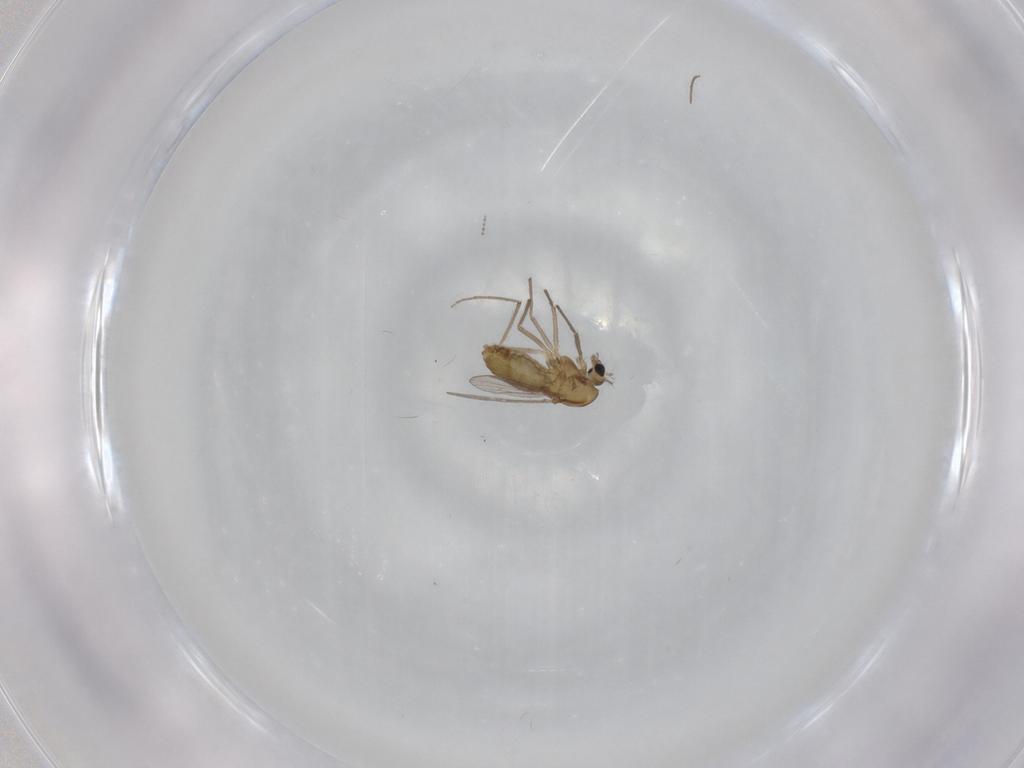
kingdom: Animalia
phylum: Arthropoda
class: Insecta
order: Diptera
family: Chironomidae
